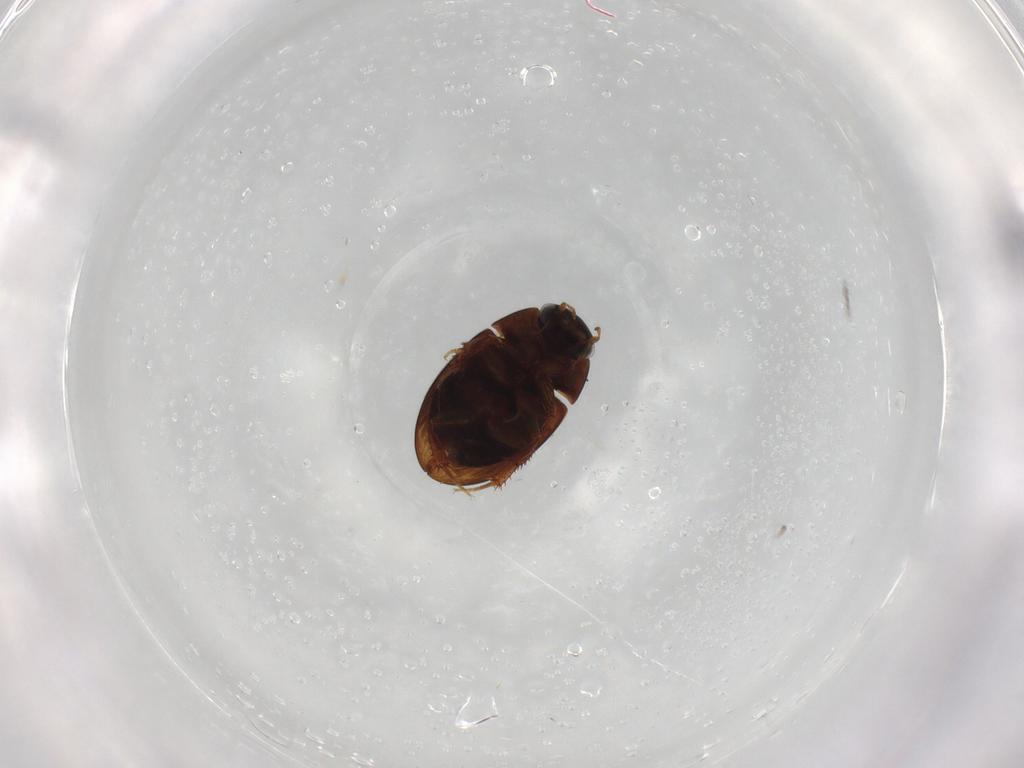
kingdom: Animalia
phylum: Arthropoda
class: Insecta
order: Coleoptera
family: Hydrophilidae
